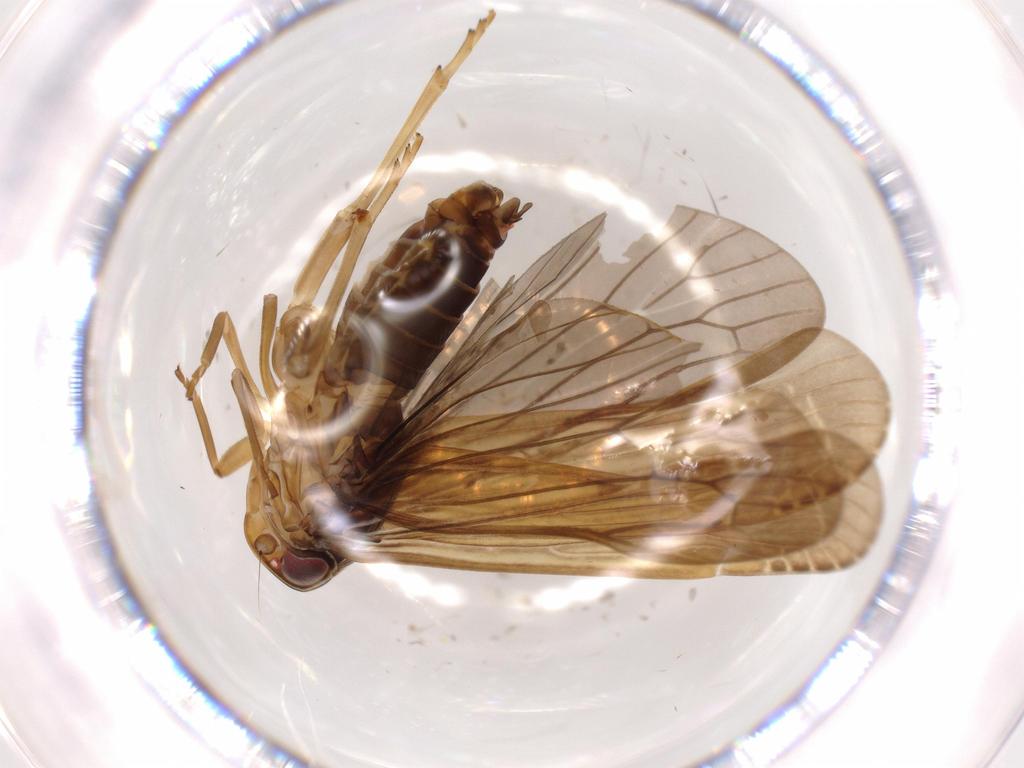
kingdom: Animalia
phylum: Arthropoda
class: Insecta
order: Hemiptera
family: Achilidae
